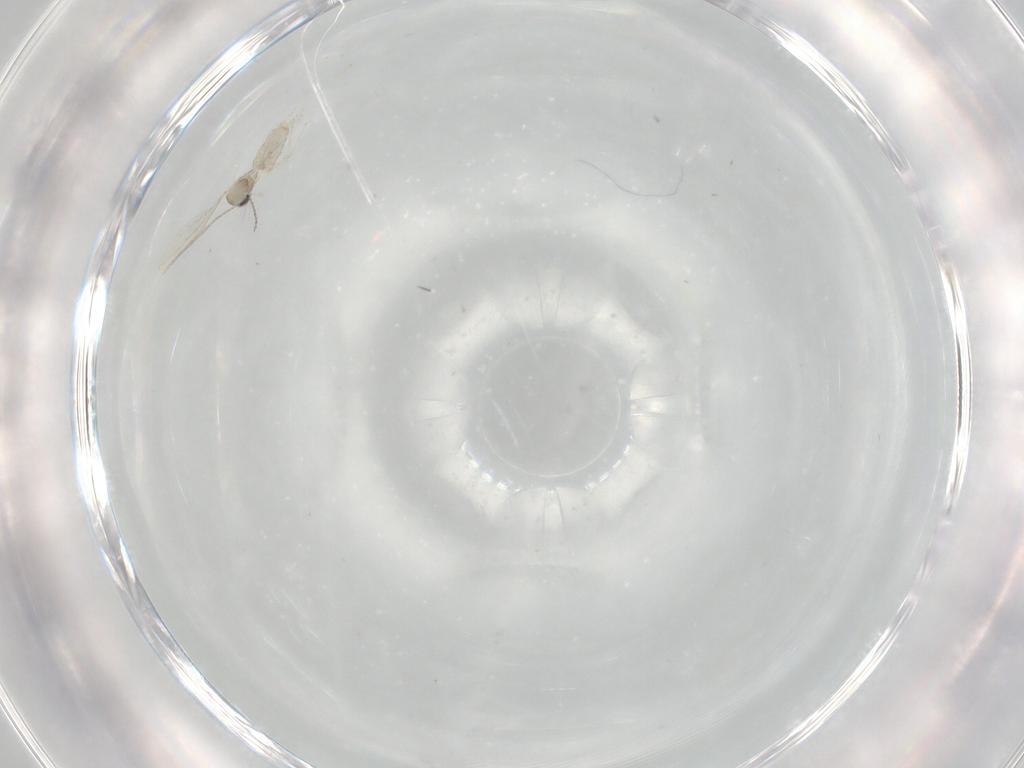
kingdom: Animalia
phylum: Arthropoda
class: Insecta
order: Diptera
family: Cecidomyiidae
